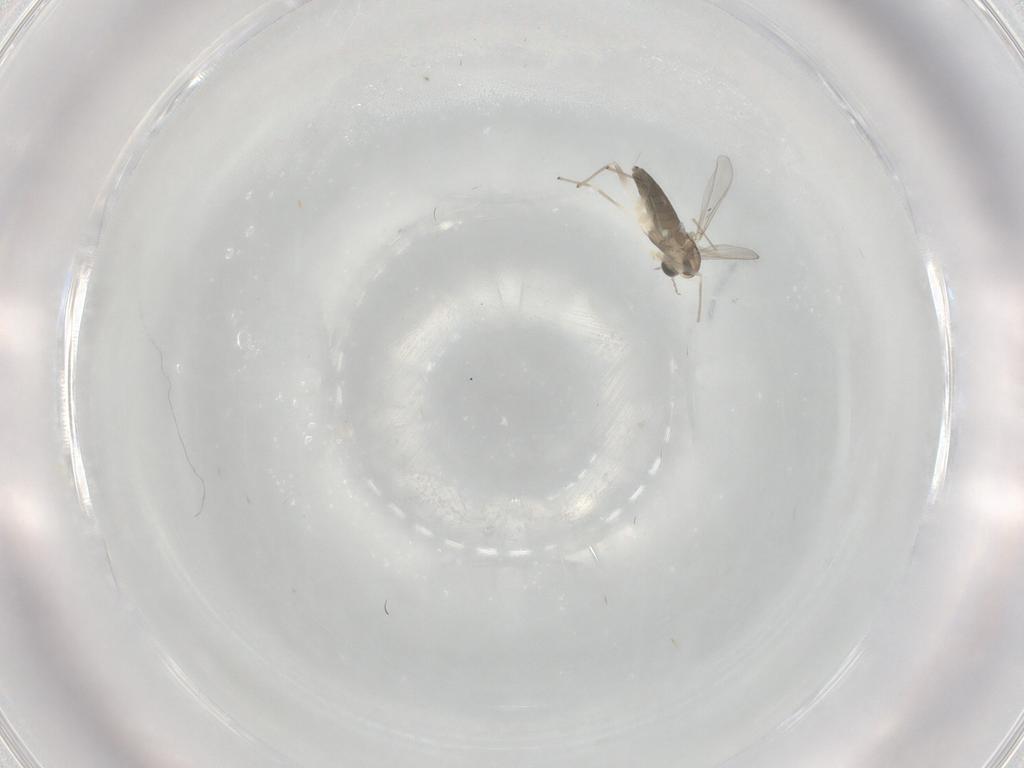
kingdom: Animalia
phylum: Arthropoda
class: Insecta
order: Diptera
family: Chironomidae
